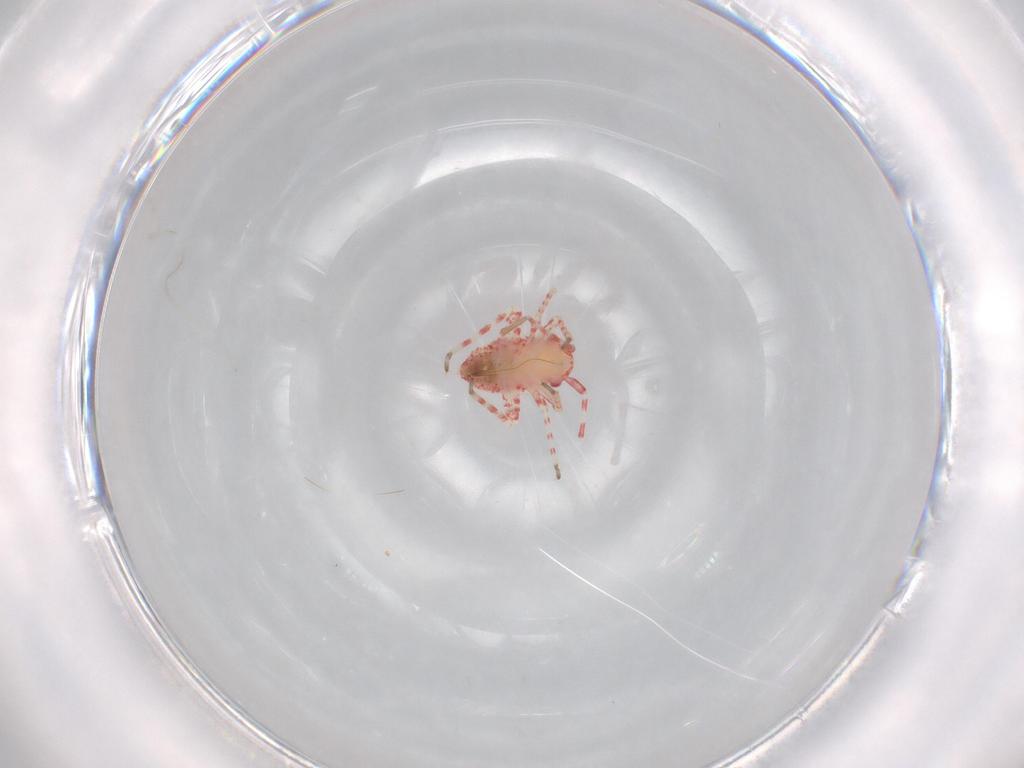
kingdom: Animalia
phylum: Arthropoda
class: Insecta
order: Hemiptera
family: Miridae
